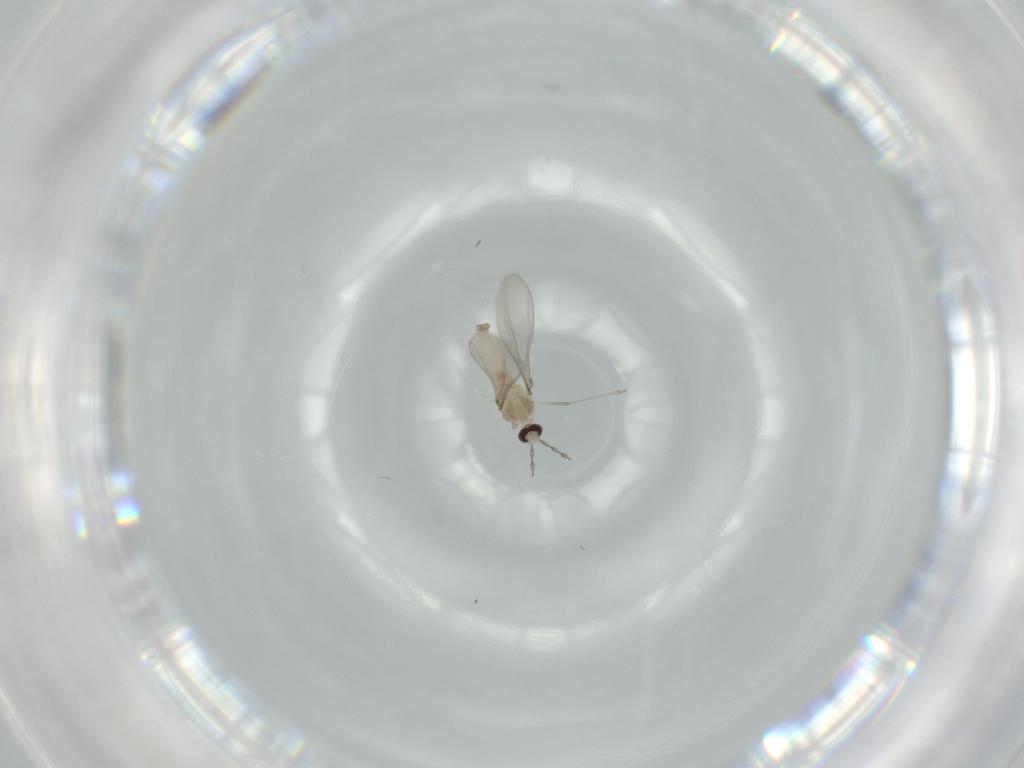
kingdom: Animalia
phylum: Arthropoda
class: Insecta
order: Diptera
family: Cecidomyiidae
